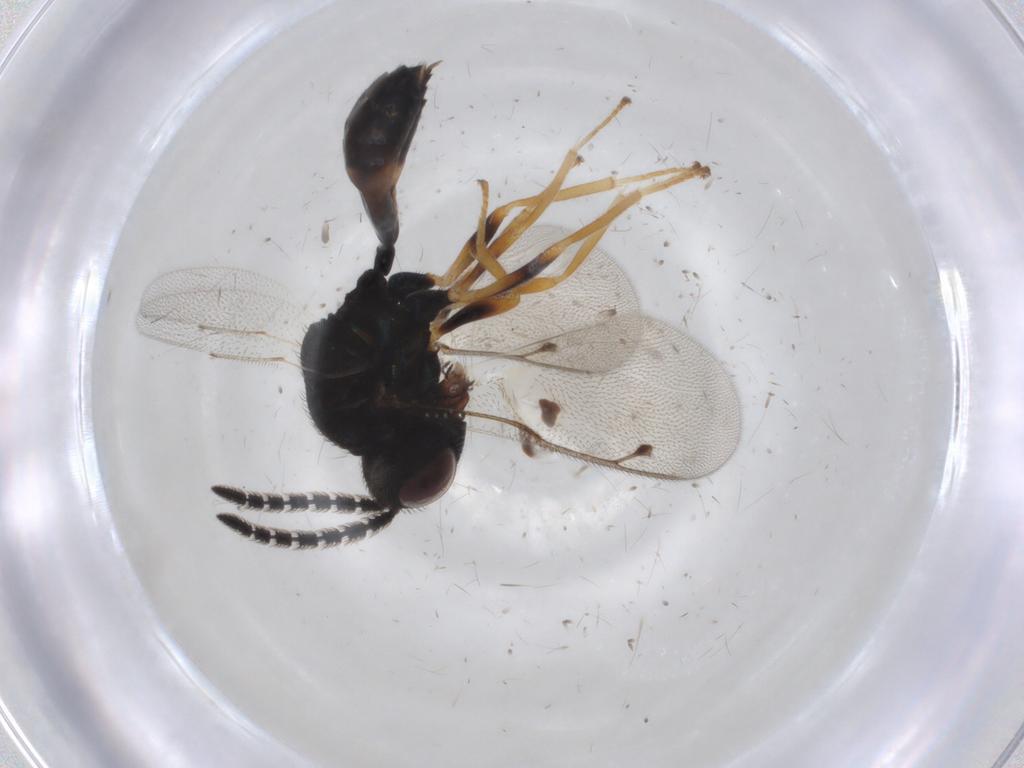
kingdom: Animalia
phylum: Arthropoda
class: Insecta
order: Hymenoptera
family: Pteromalidae
